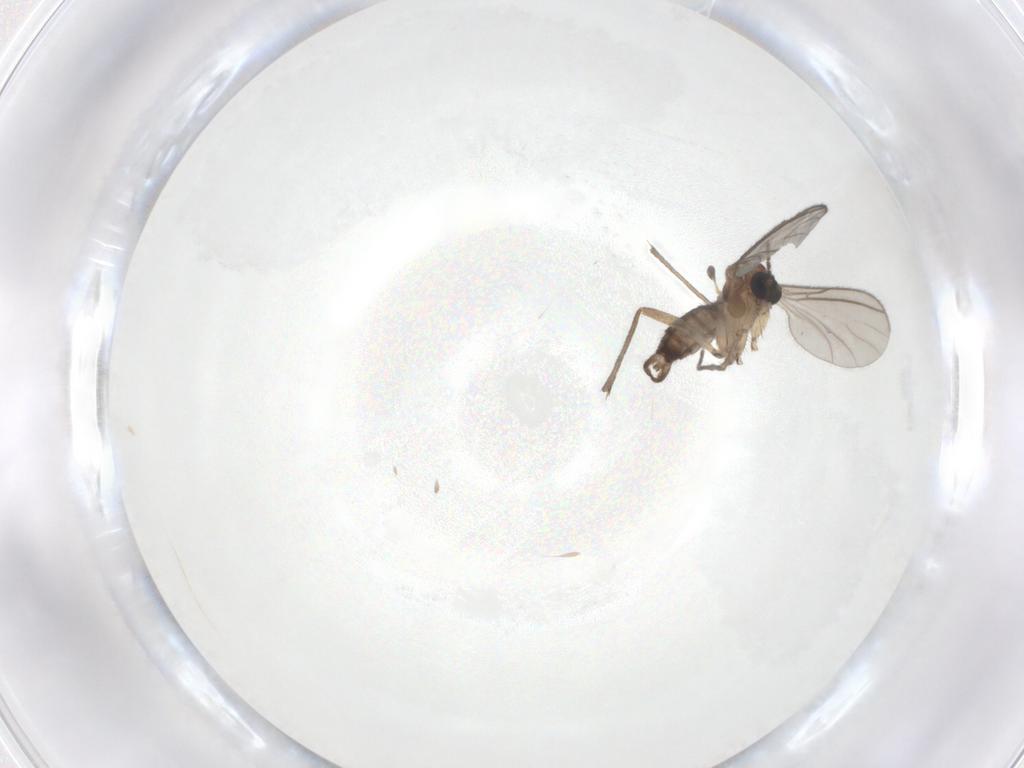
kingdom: Animalia
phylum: Arthropoda
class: Insecta
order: Diptera
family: Sciaridae
